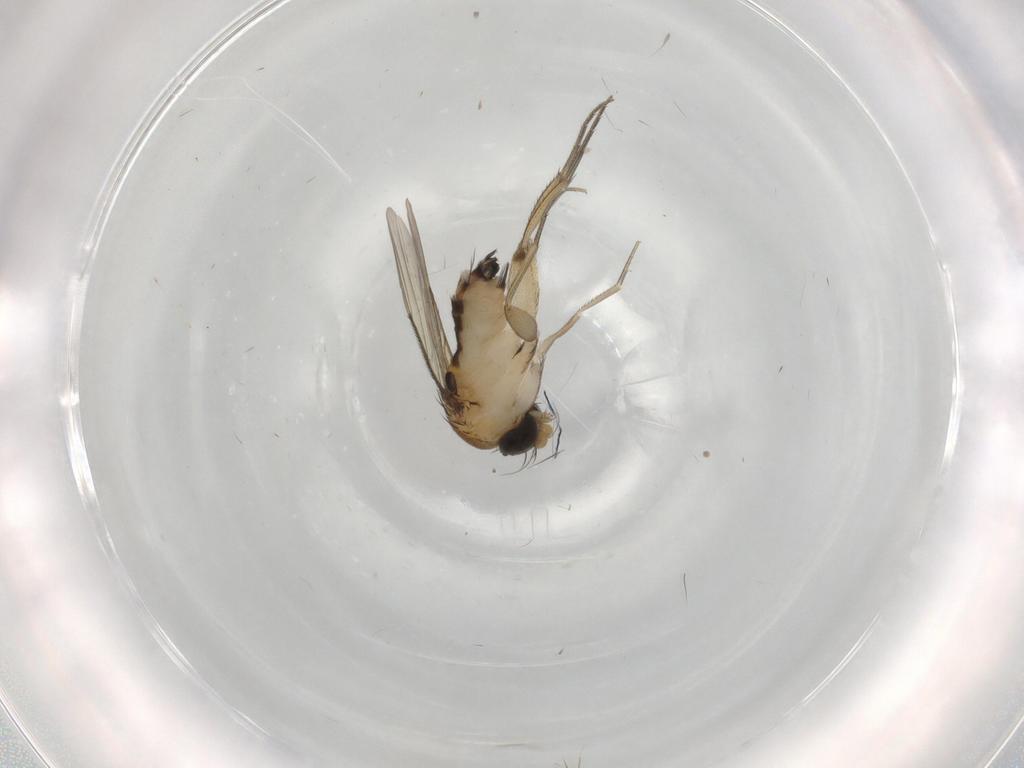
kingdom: Animalia
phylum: Arthropoda
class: Insecta
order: Diptera
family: Phoridae
